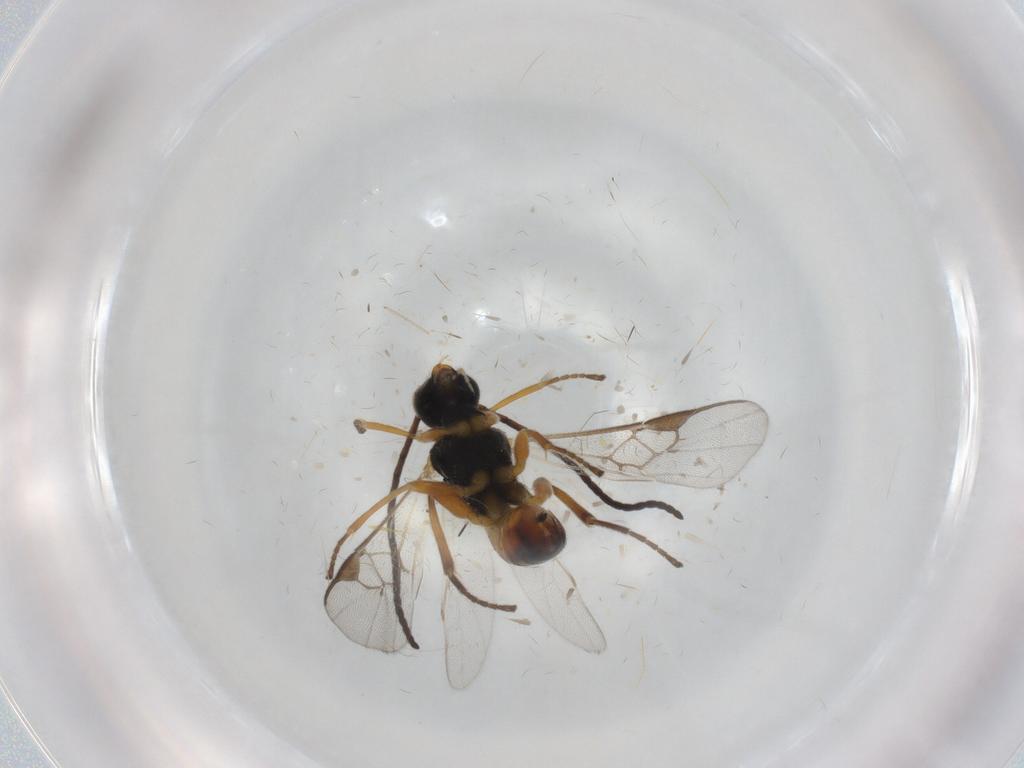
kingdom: Animalia
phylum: Arthropoda
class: Insecta
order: Hymenoptera
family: Braconidae
